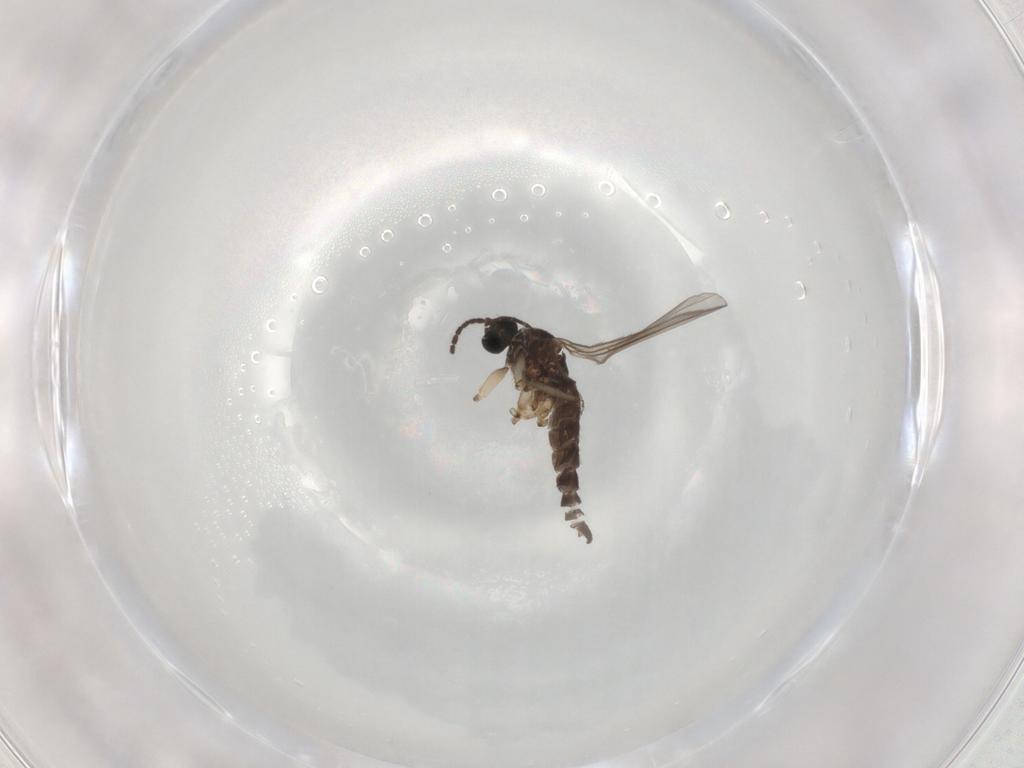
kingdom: Animalia
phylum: Arthropoda
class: Insecta
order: Diptera
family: Sciaridae
